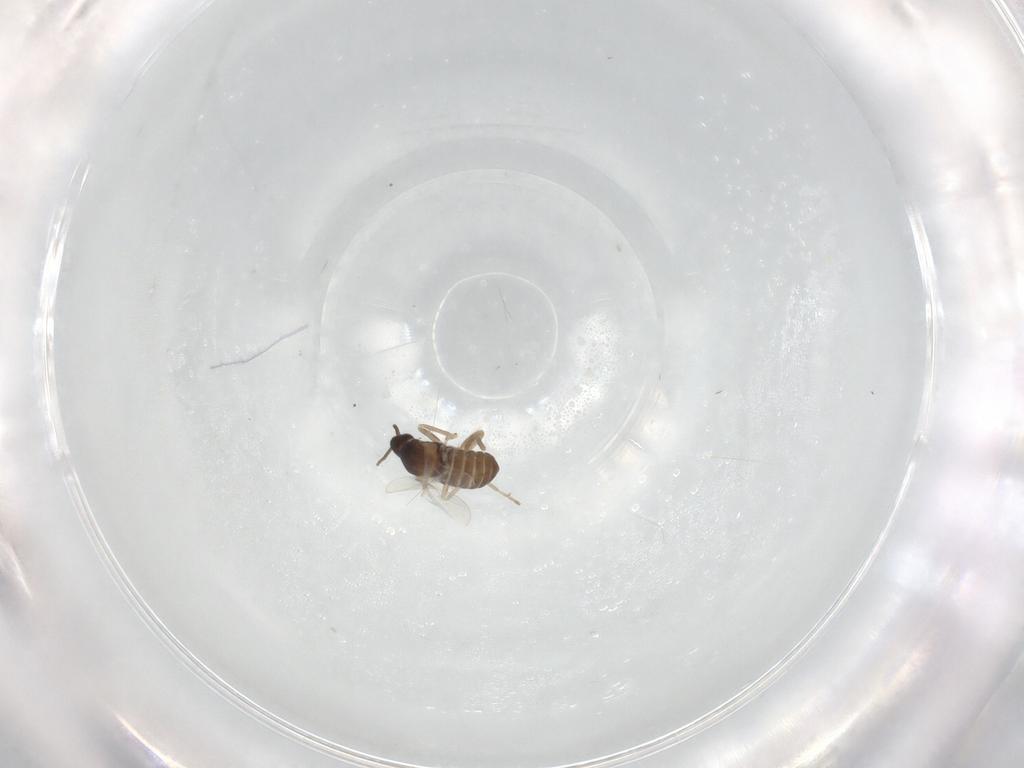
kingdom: Animalia
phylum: Arthropoda
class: Insecta
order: Diptera
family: Cecidomyiidae
